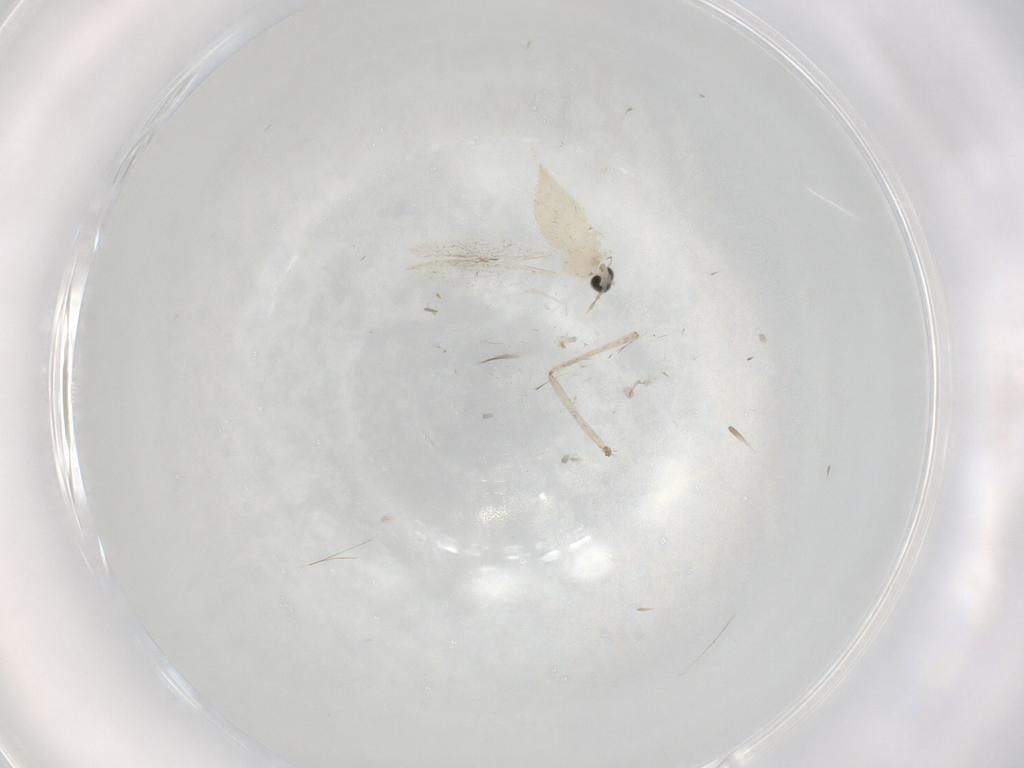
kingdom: Animalia
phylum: Arthropoda
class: Insecta
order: Diptera
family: Cecidomyiidae
